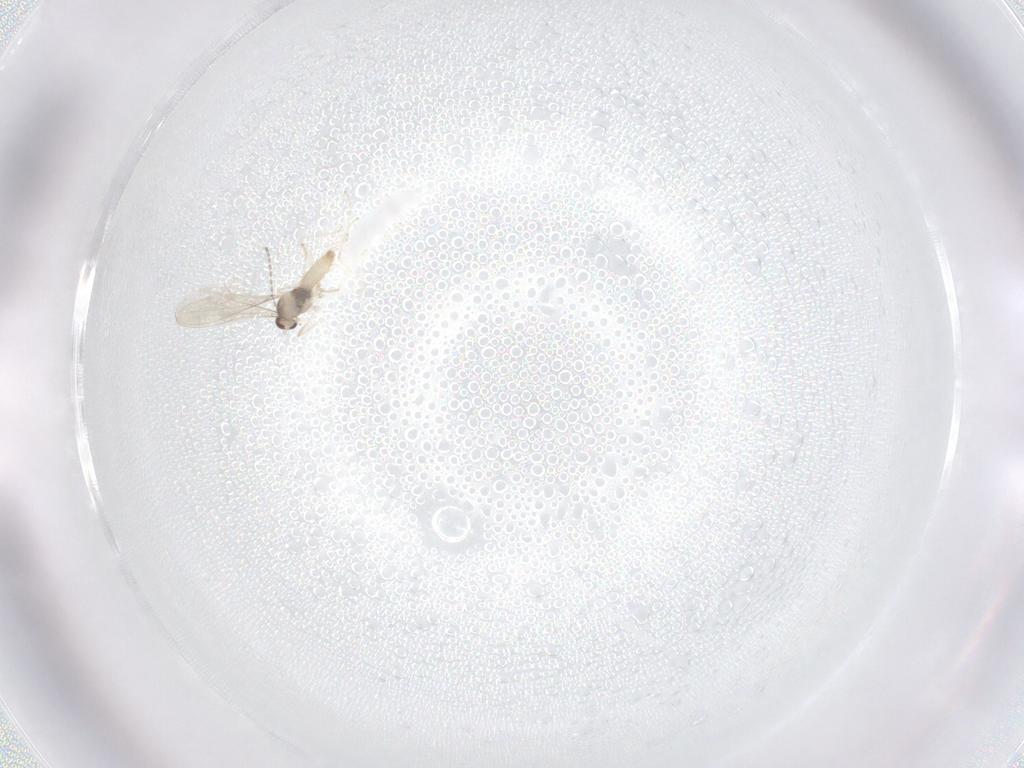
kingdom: Animalia
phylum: Arthropoda
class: Insecta
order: Diptera
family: Cecidomyiidae
